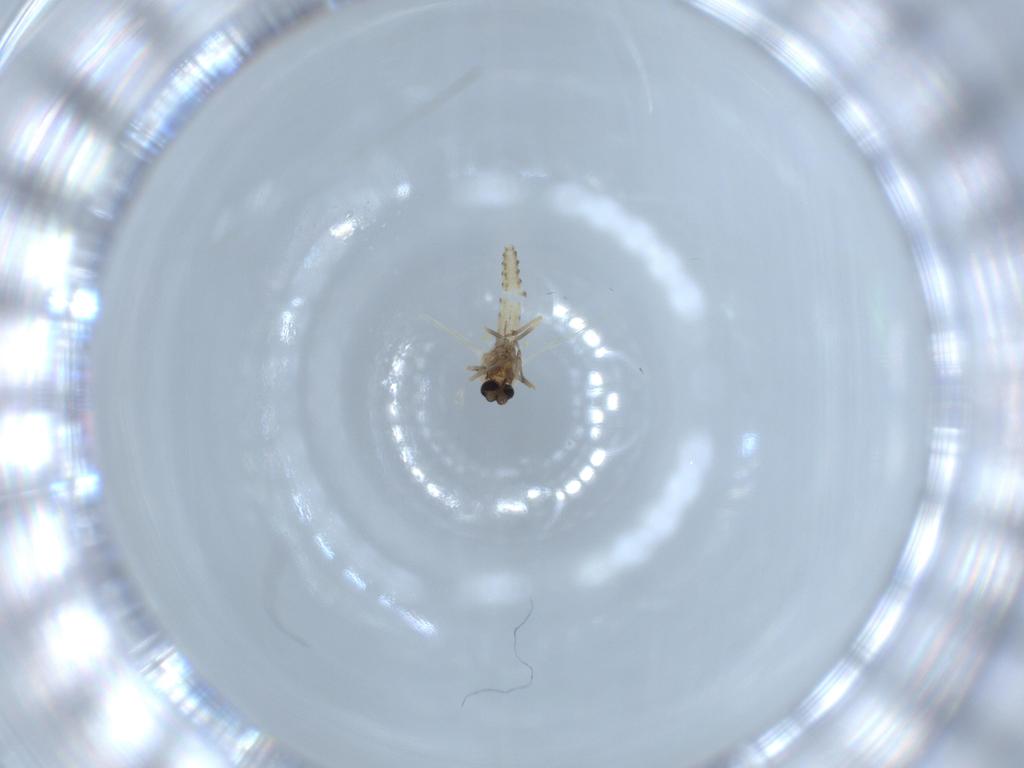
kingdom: Animalia
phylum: Arthropoda
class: Insecta
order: Diptera
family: Ceratopogonidae
